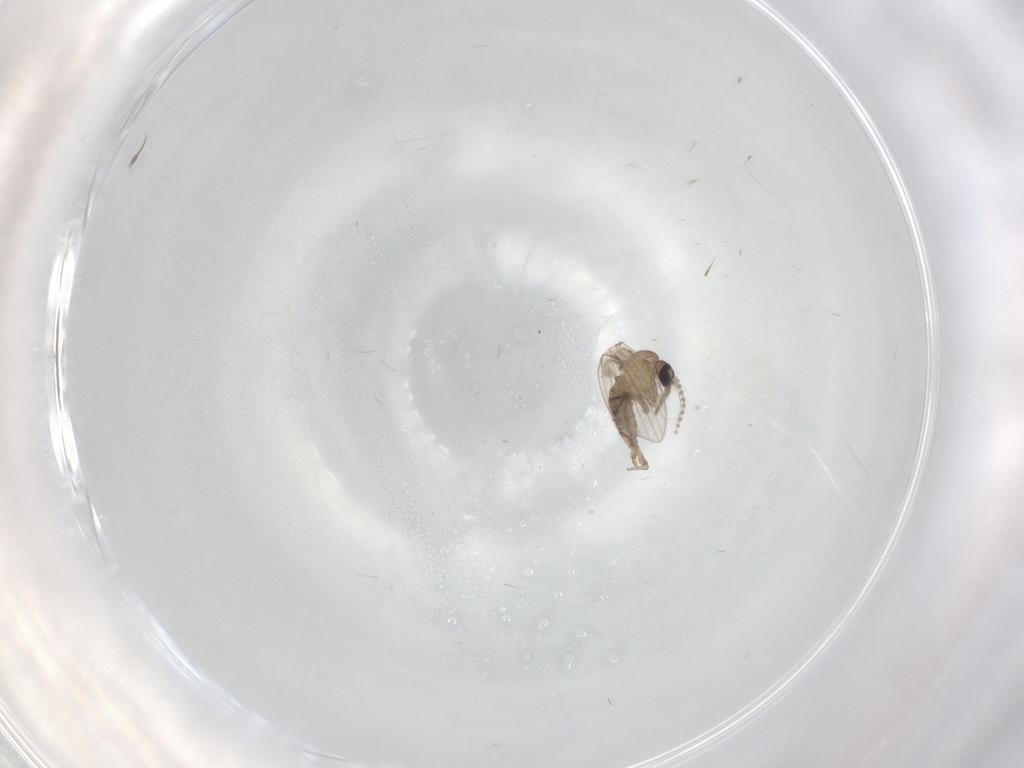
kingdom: Animalia
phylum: Arthropoda
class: Insecta
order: Diptera
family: Psychodidae
